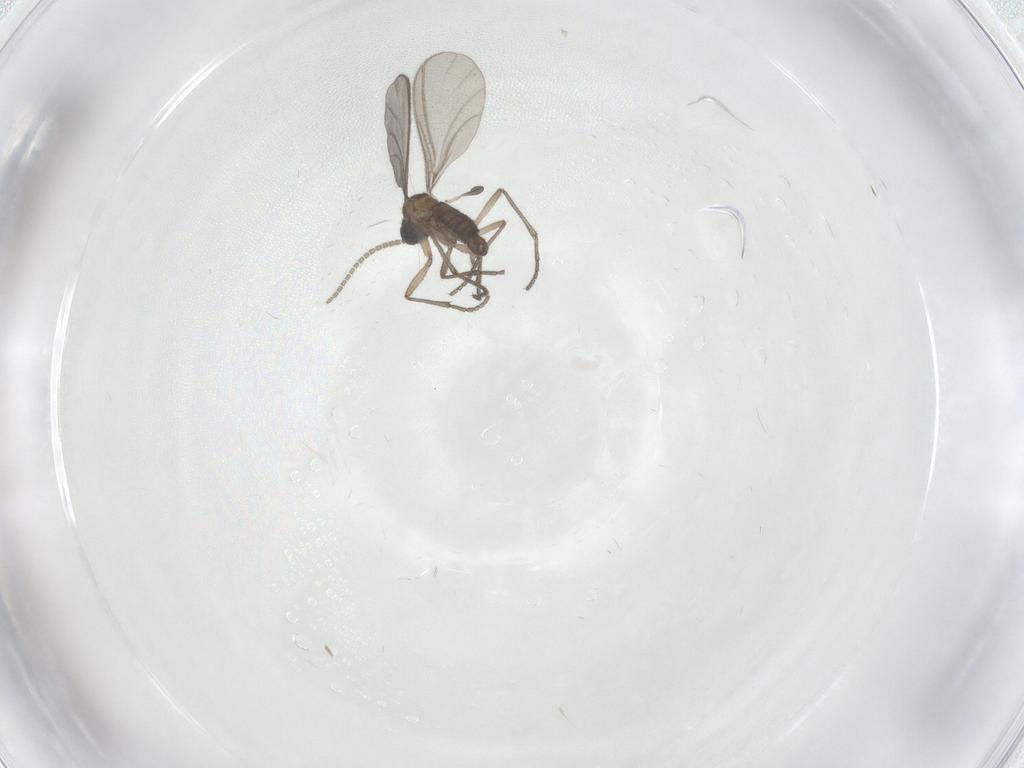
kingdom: Animalia
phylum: Arthropoda
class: Insecta
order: Diptera
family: Sciaridae
